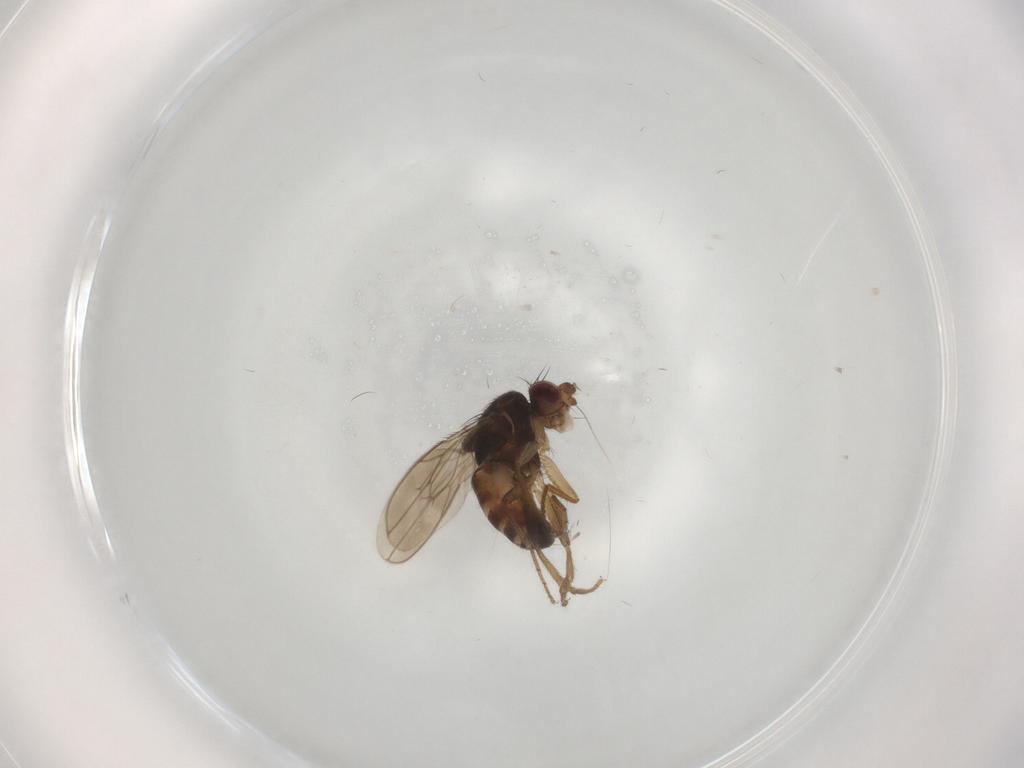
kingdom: Animalia
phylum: Arthropoda
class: Insecta
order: Diptera
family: Sphaeroceridae
